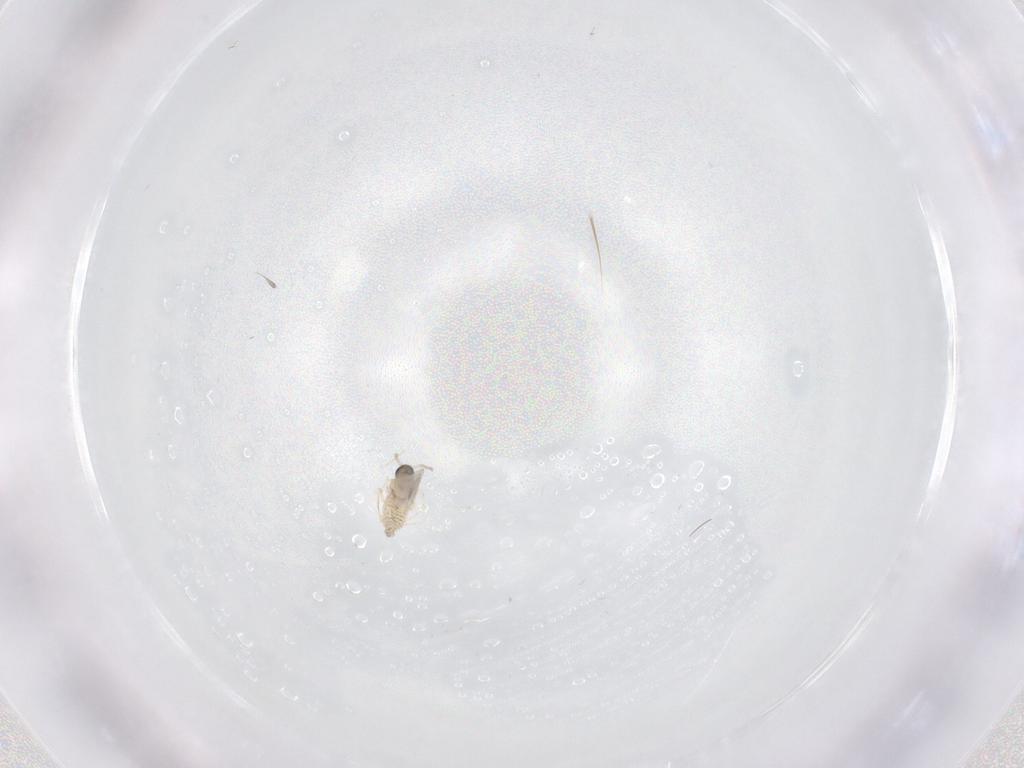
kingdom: Animalia
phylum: Arthropoda
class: Insecta
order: Diptera
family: Cecidomyiidae
